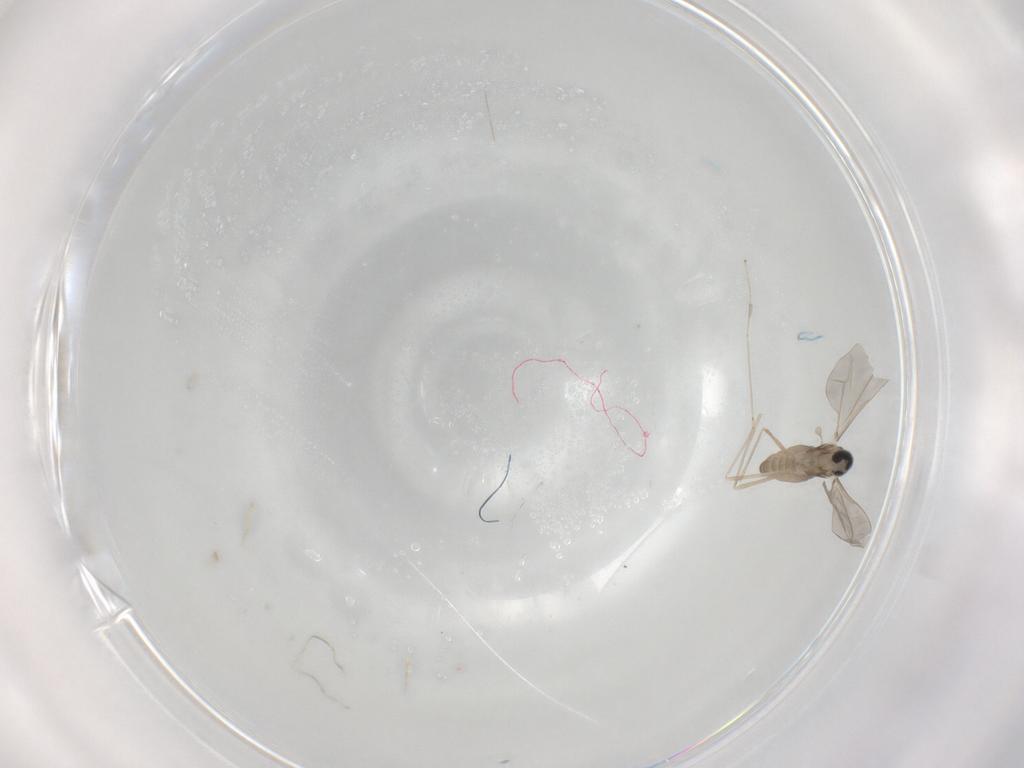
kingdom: Animalia
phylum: Arthropoda
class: Insecta
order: Diptera
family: Cecidomyiidae
